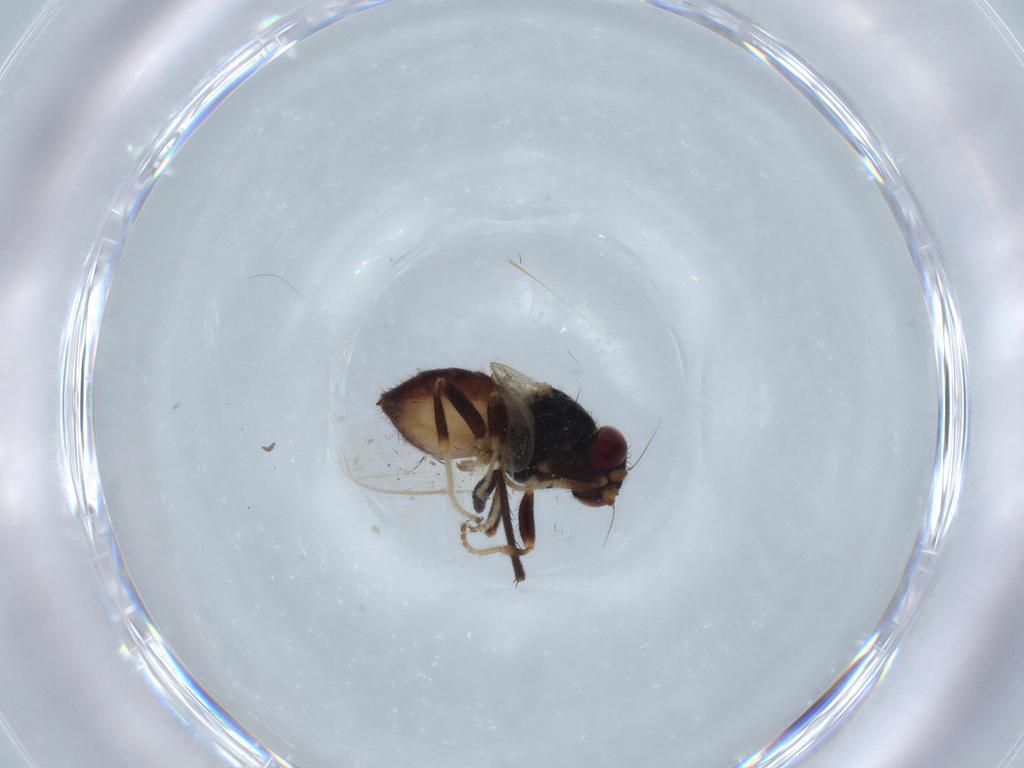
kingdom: Animalia
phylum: Arthropoda
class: Insecta
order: Diptera
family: Dolichopodidae
